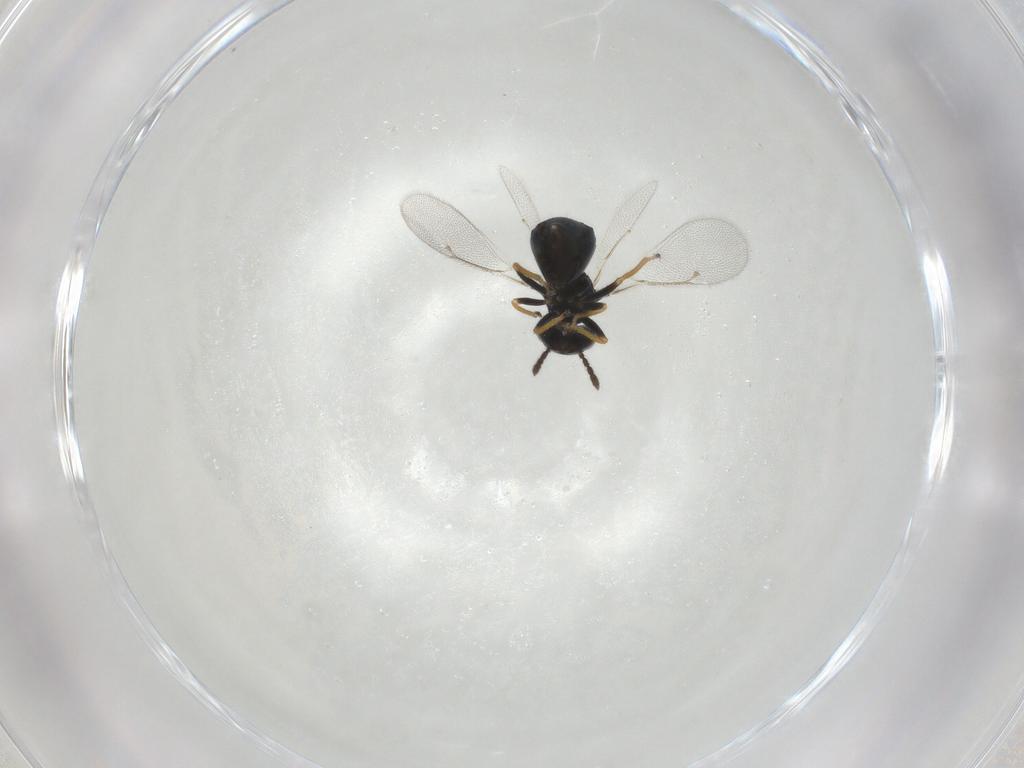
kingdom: Animalia
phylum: Arthropoda
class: Insecta
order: Hymenoptera
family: Eulophidae
